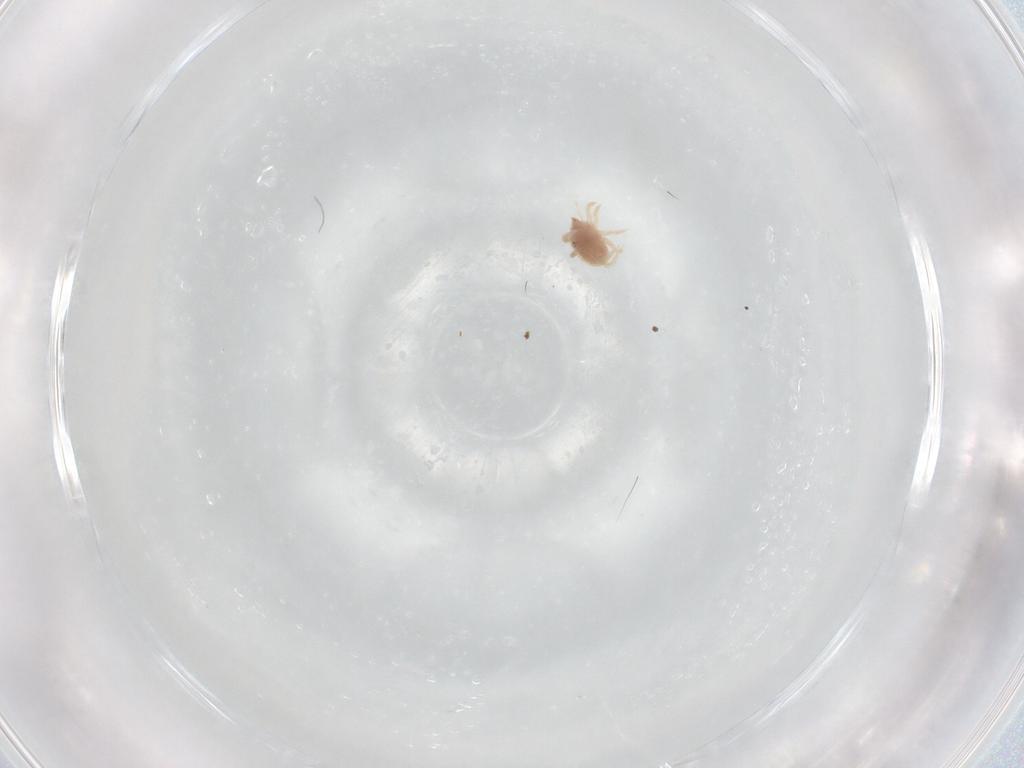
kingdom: Animalia
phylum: Arthropoda
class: Arachnida
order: Trombidiformes
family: Bdellidae
